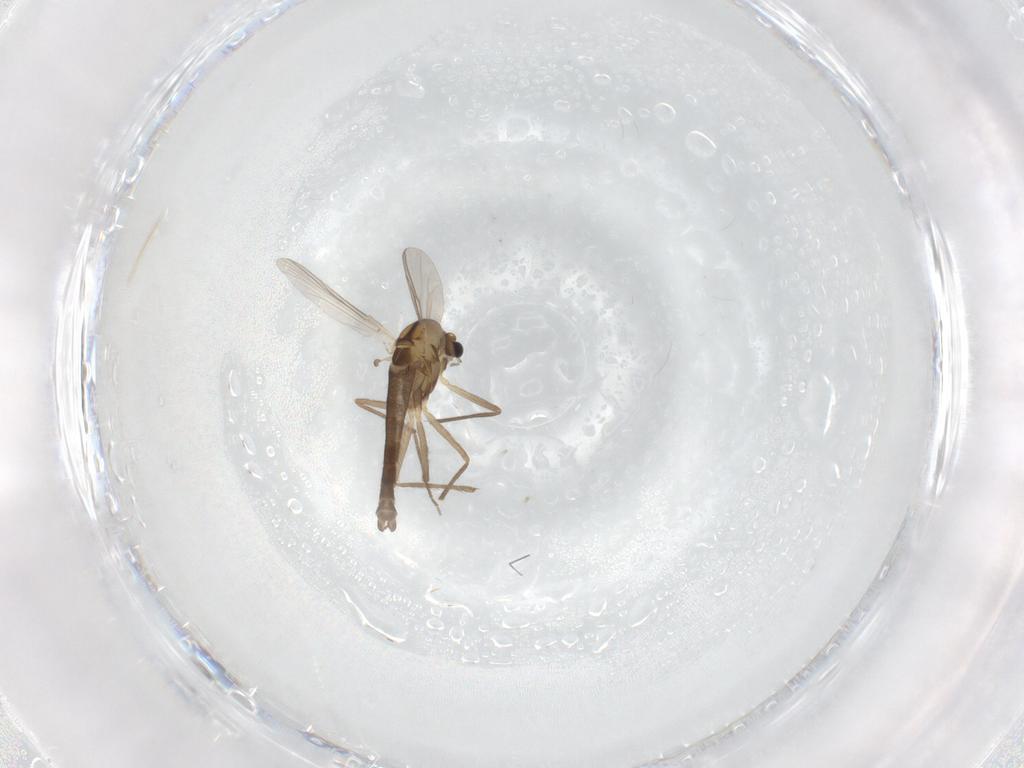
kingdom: Animalia
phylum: Arthropoda
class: Insecta
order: Diptera
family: Chironomidae
